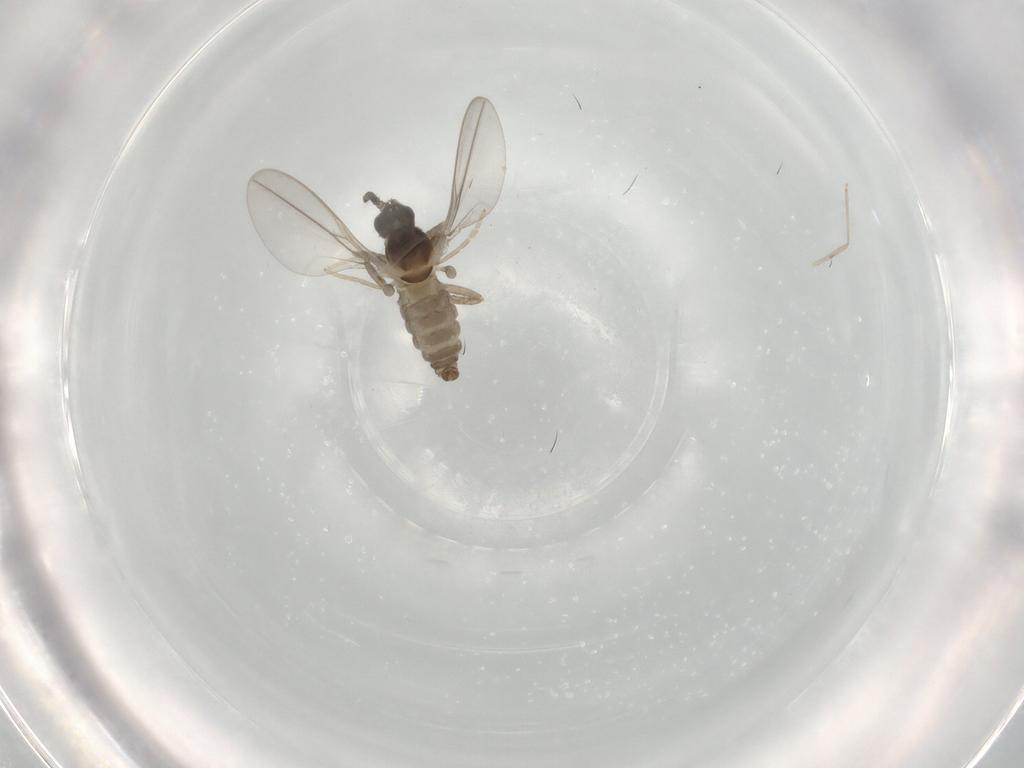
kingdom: Animalia
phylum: Arthropoda
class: Insecta
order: Diptera
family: Cecidomyiidae
